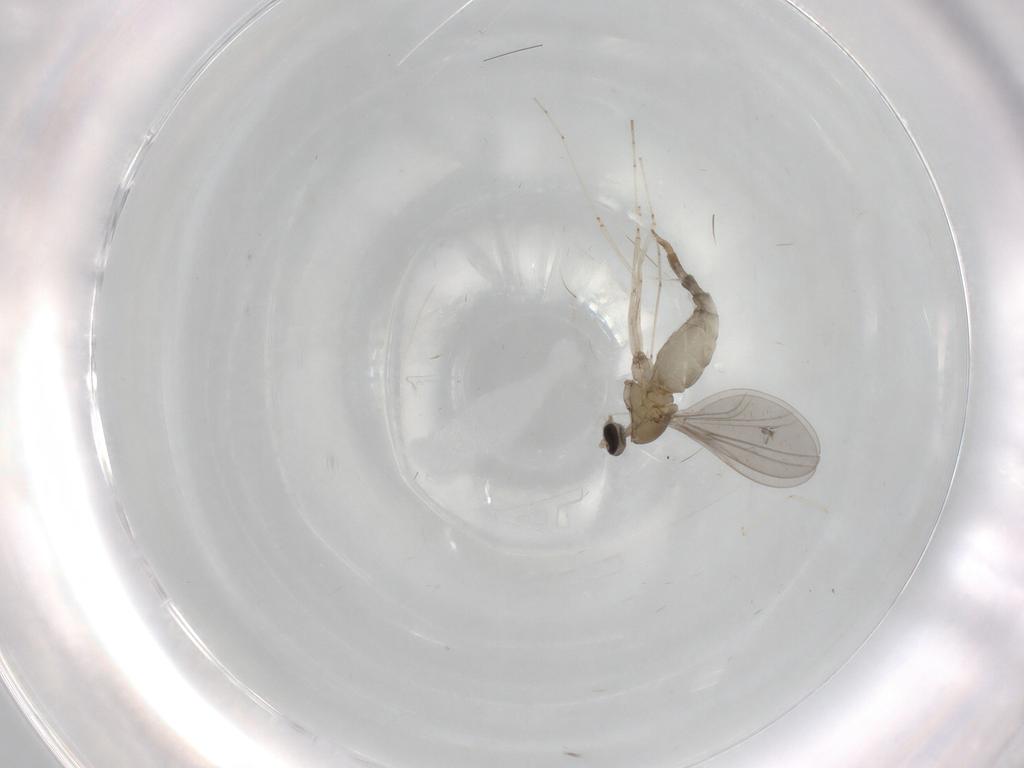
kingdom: Animalia
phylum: Arthropoda
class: Insecta
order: Diptera
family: Cecidomyiidae
